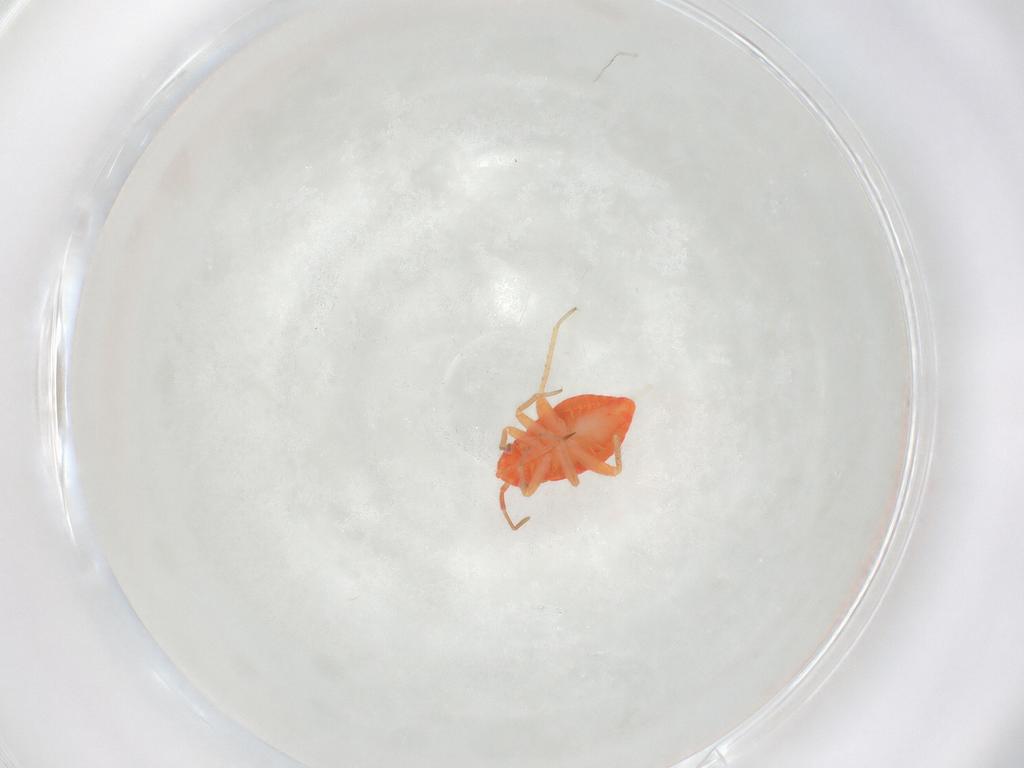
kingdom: Animalia
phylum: Arthropoda
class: Insecta
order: Hemiptera
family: Miridae
